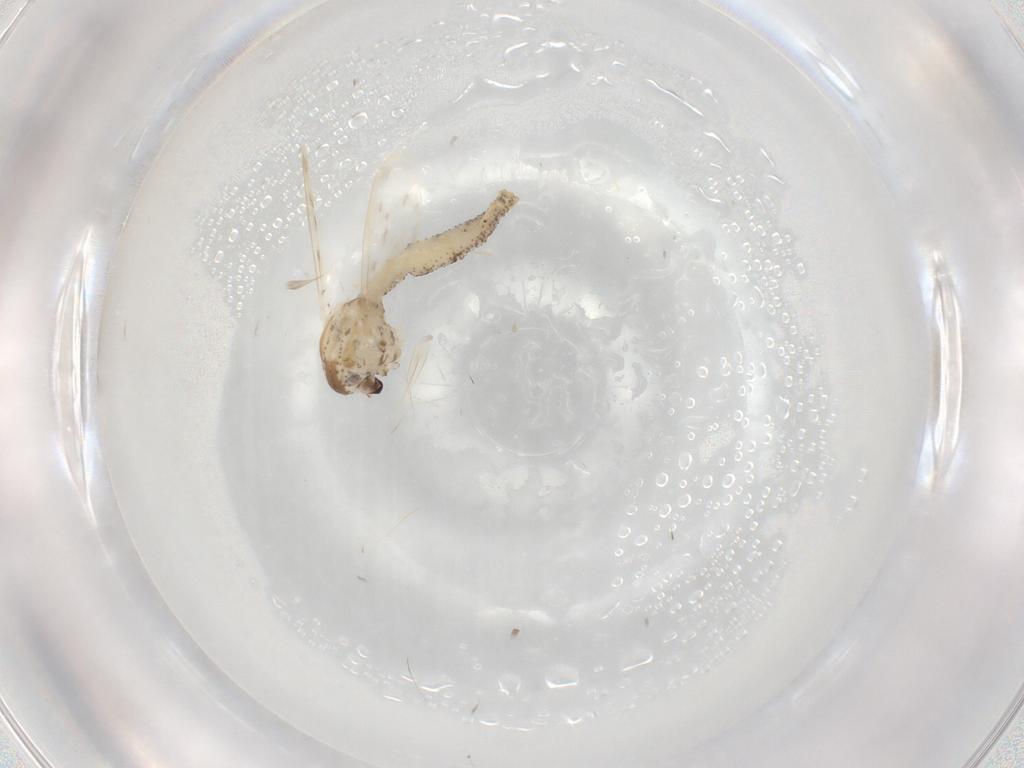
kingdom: Animalia
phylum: Arthropoda
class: Insecta
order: Diptera
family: Chaoboridae
